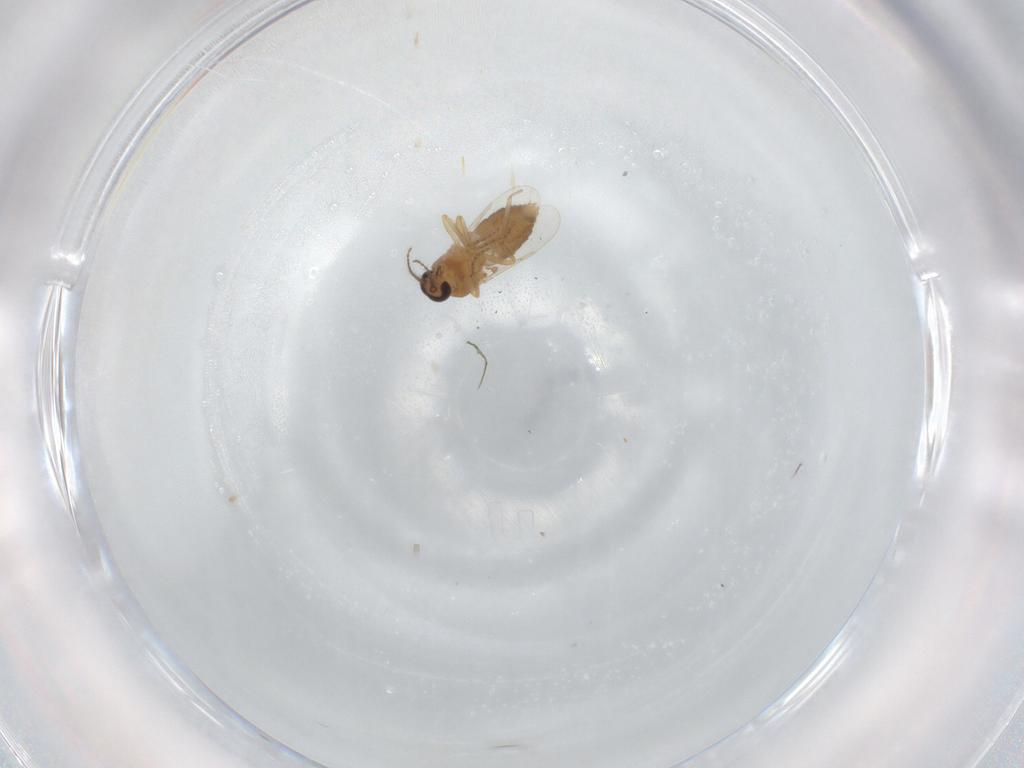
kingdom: Animalia
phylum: Arthropoda
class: Insecta
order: Diptera
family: Ceratopogonidae
